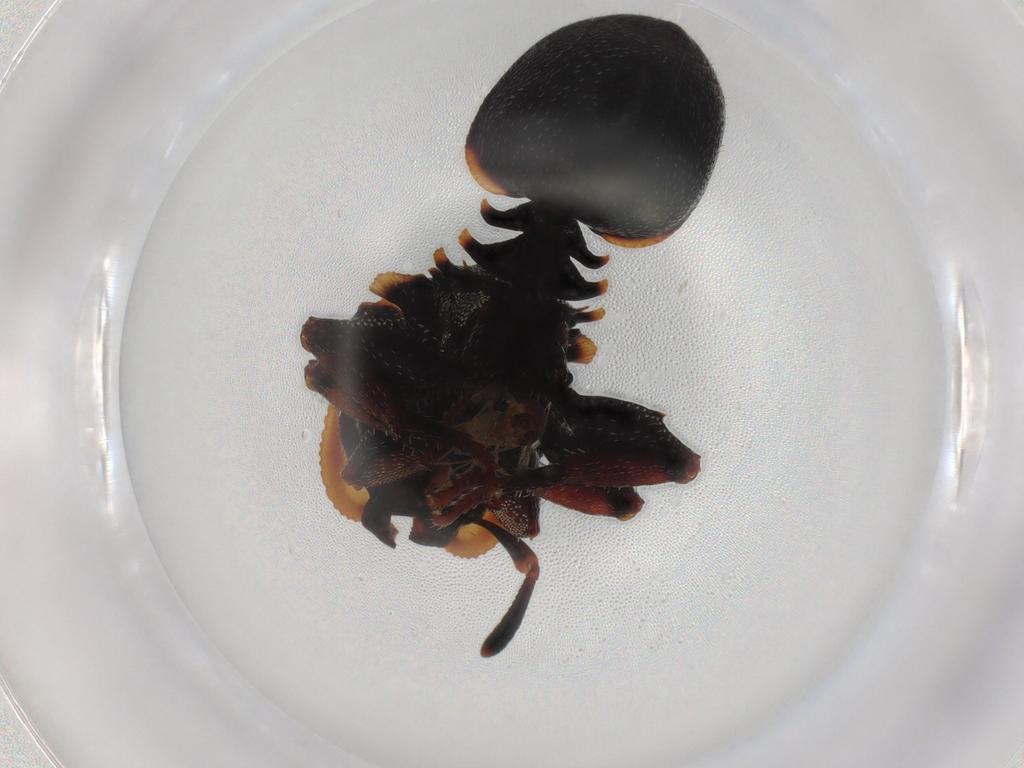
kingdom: Animalia
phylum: Arthropoda
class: Insecta
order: Hymenoptera
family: Formicidae
